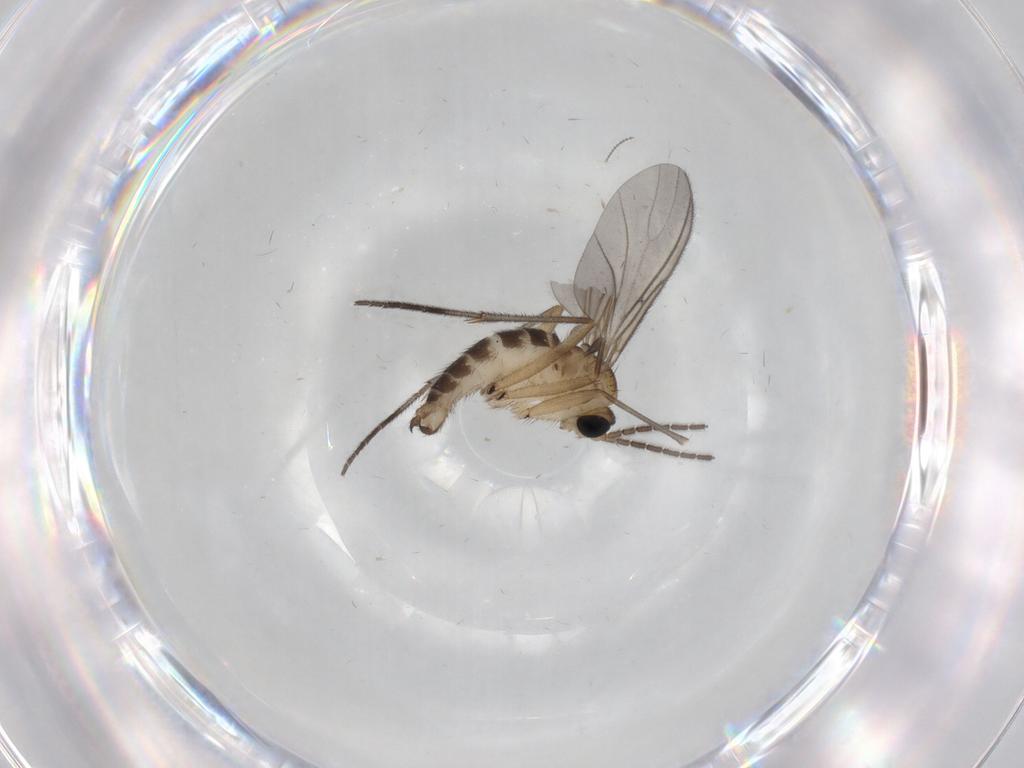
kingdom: Animalia
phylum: Arthropoda
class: Insecta
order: Diptera
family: Sciaridae
